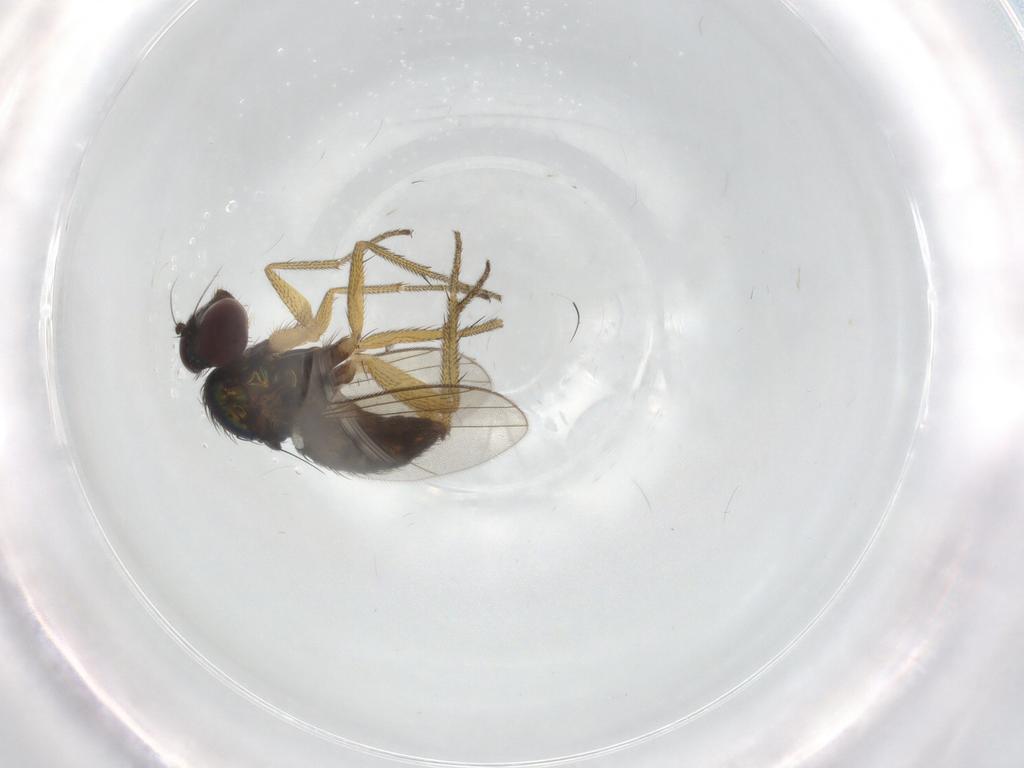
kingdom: Animalia
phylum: Arthropoda
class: Insecta
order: Diptera
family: Dolichopodidae
